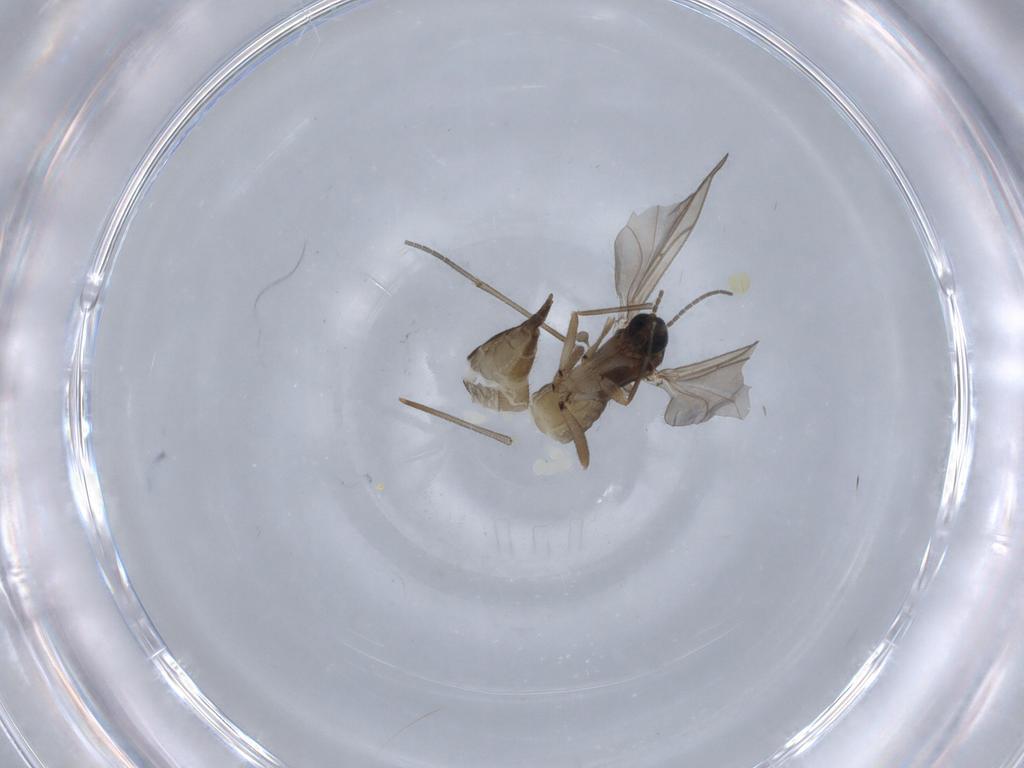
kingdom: Animalia
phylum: Arthropoda
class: Insecta
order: Diptera
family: Sciaridae
